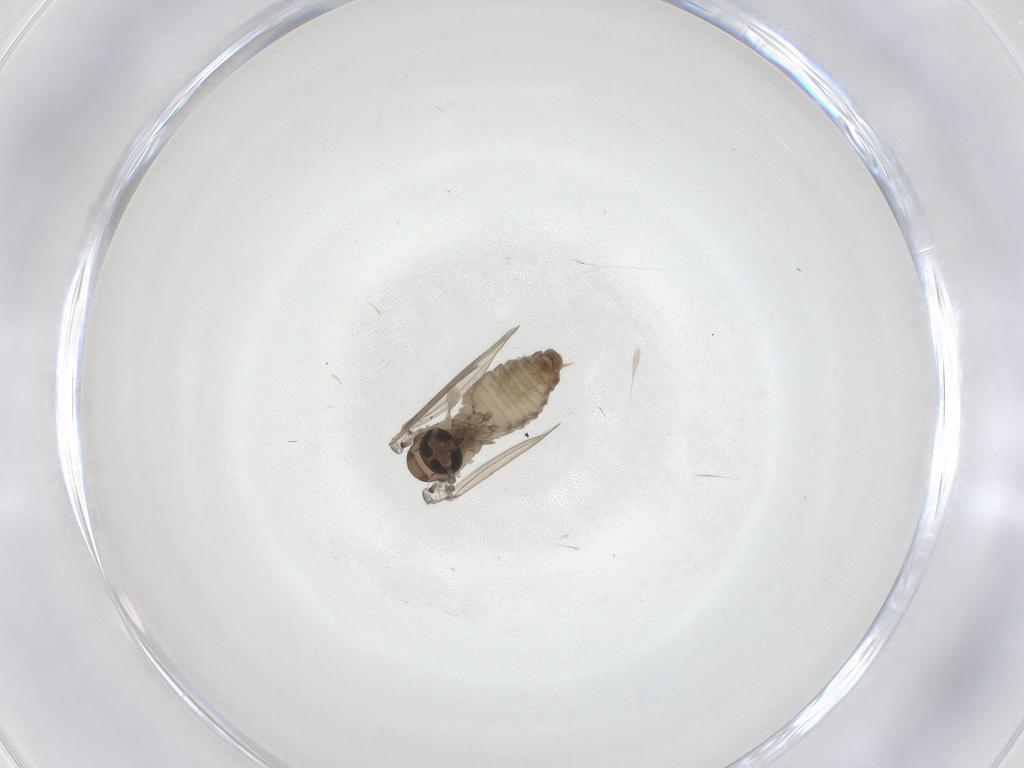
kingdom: Animalia
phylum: Arthropoda
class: Insecta
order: Diptera
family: Psychodidae
